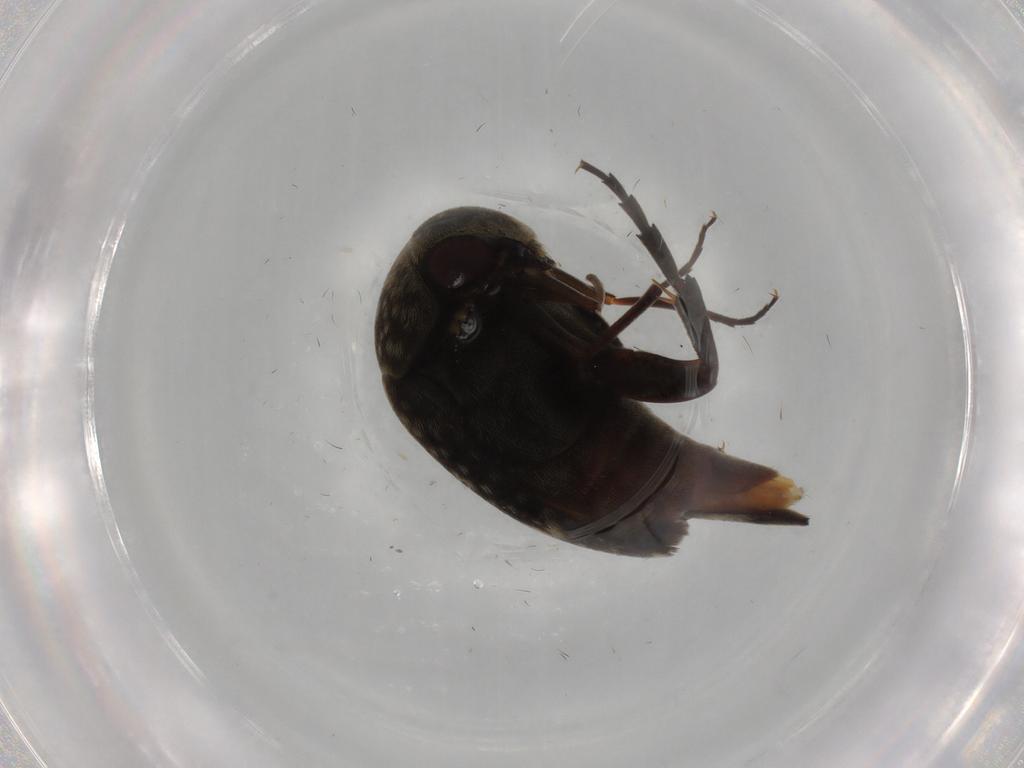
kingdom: Animalia
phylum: Arthropoda
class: Insecta
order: Coleoptera
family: Mordellidae
